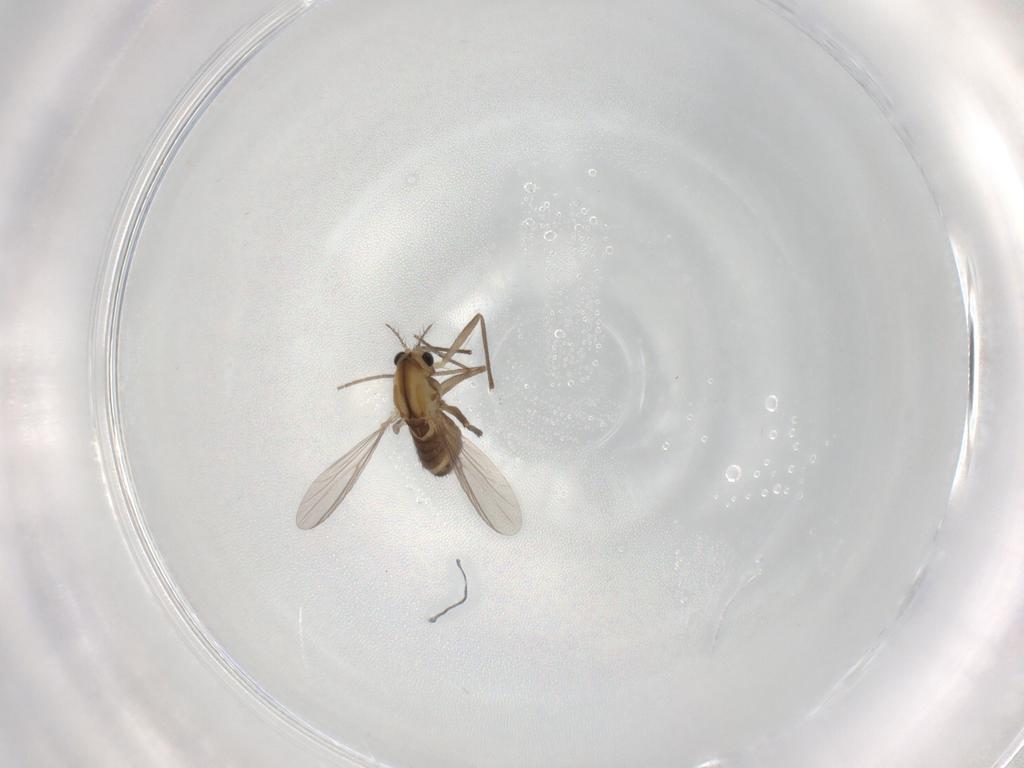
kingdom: Animalia
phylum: Arthropoda
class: Insecta
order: Diptera
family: Chironomidae
